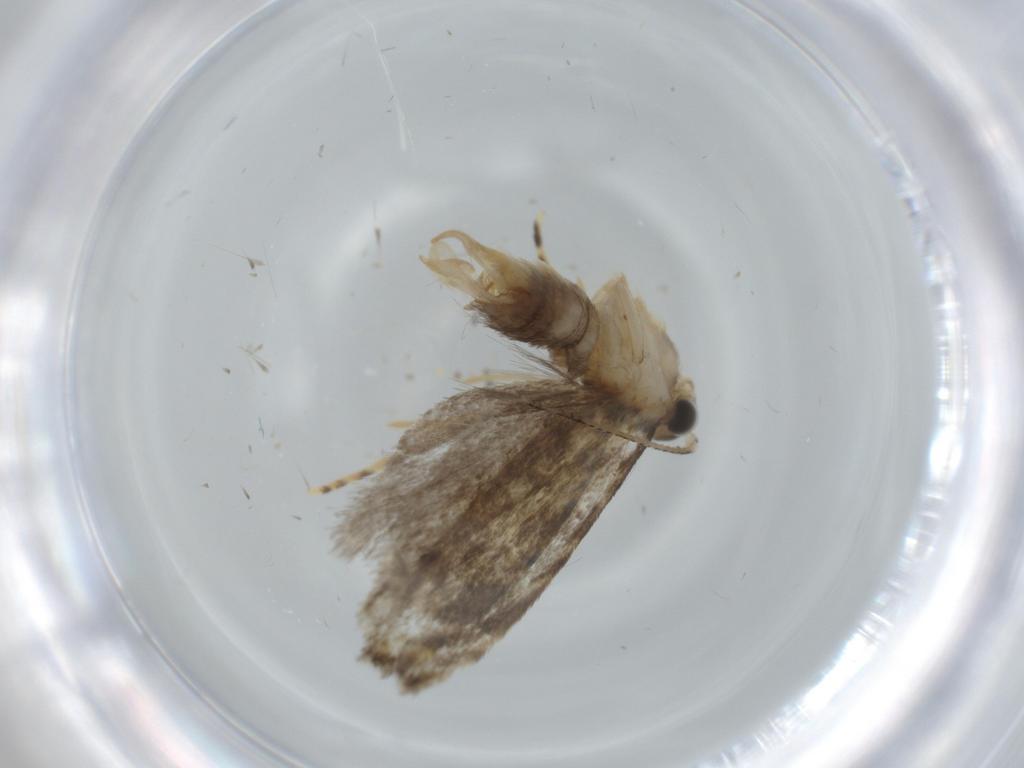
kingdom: Animalia
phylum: Arthropoda
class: Insecta
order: Lepidoptera
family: Tineidae
